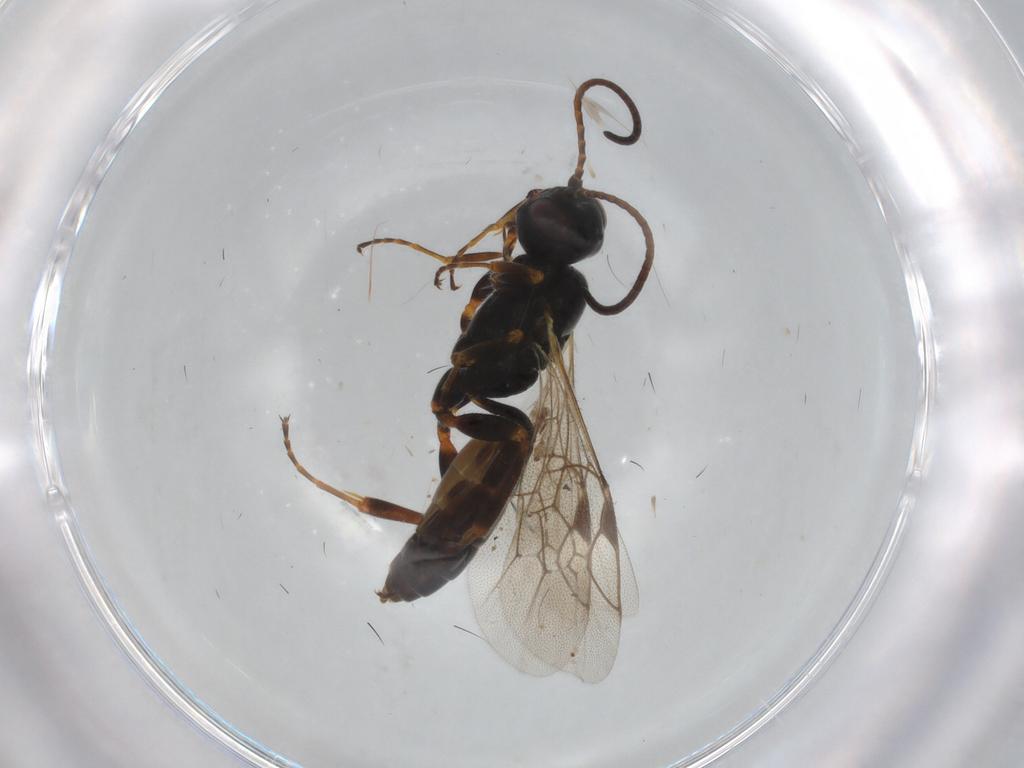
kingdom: Animalia
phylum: Arthropoda
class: Insecta
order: Hymenoptera
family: Ichneumonidae
